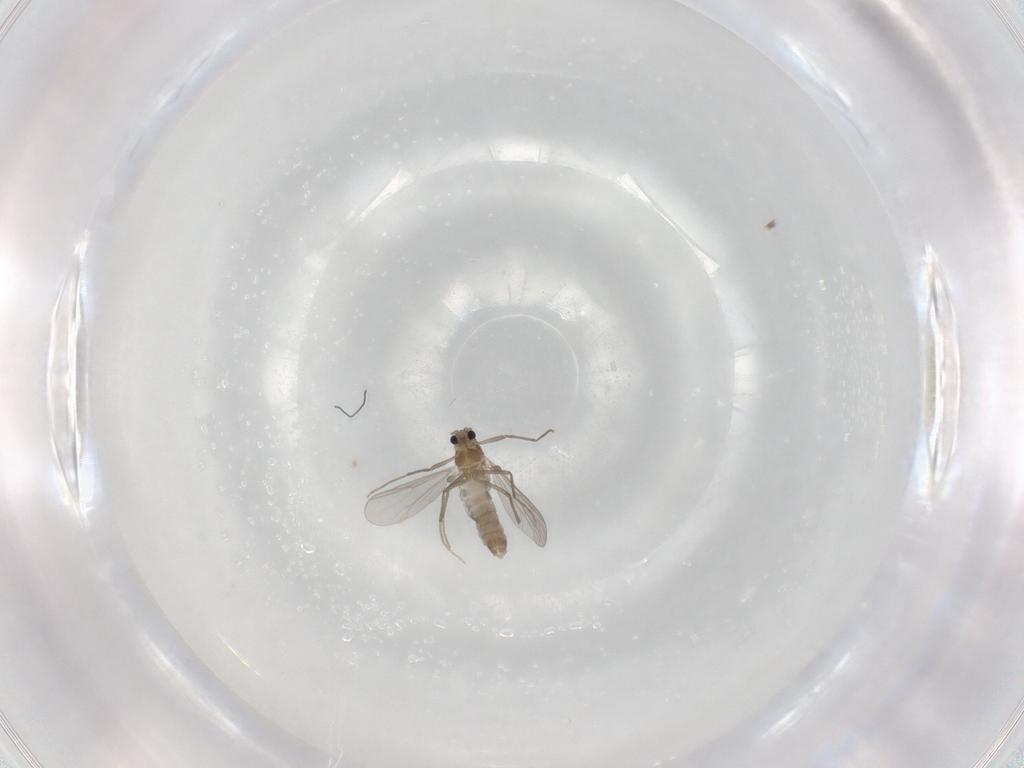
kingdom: Animalia
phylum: Arthropoda
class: Insecta
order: Diptera
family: Chironomidae
